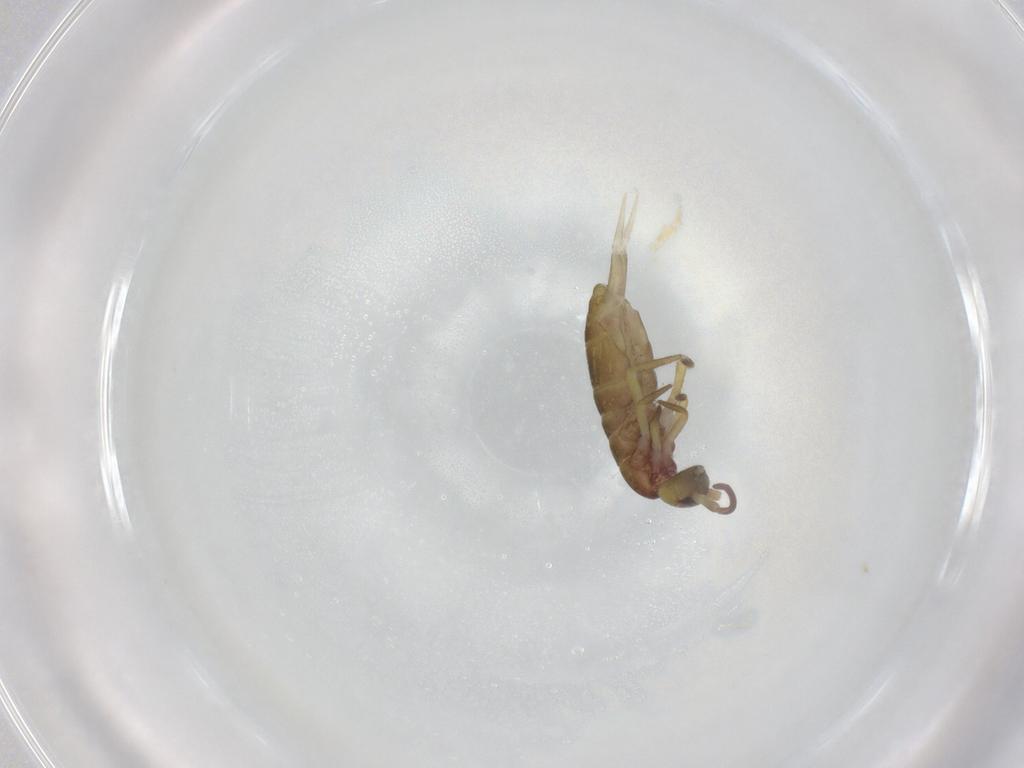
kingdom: Animalia
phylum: Arthropoda
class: Collembola
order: Entomobryomorpha
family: Tomoceridae
